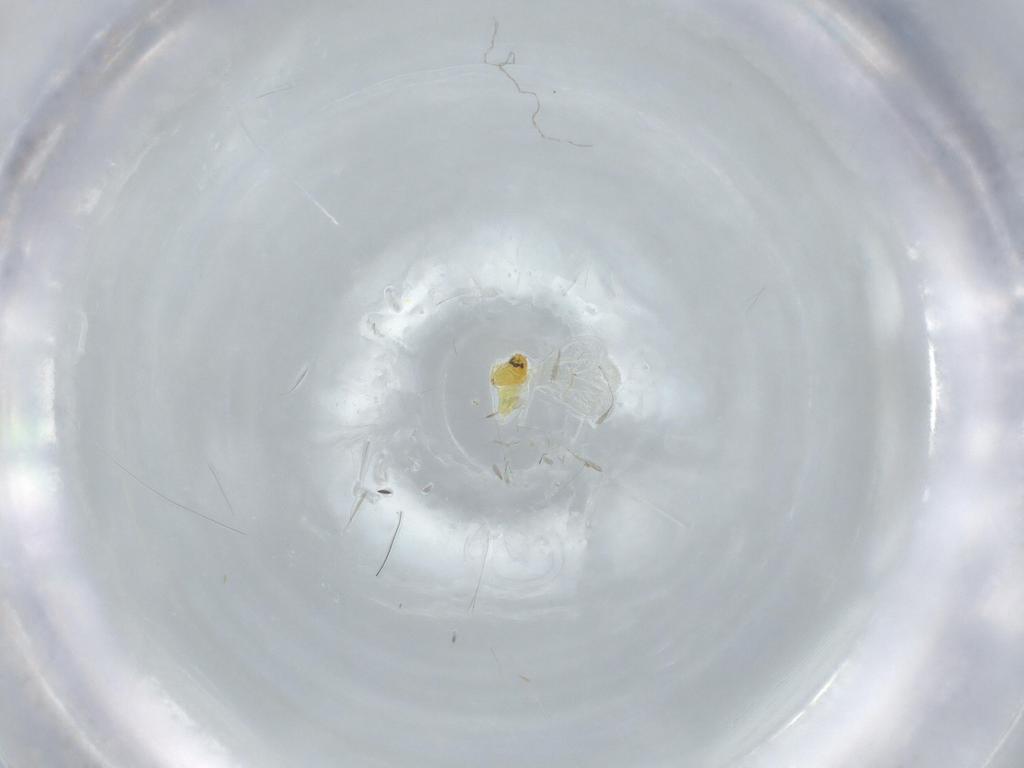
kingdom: Animalia
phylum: Arthropoda
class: Insecta
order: Hemiptera
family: Aleyrodidae
